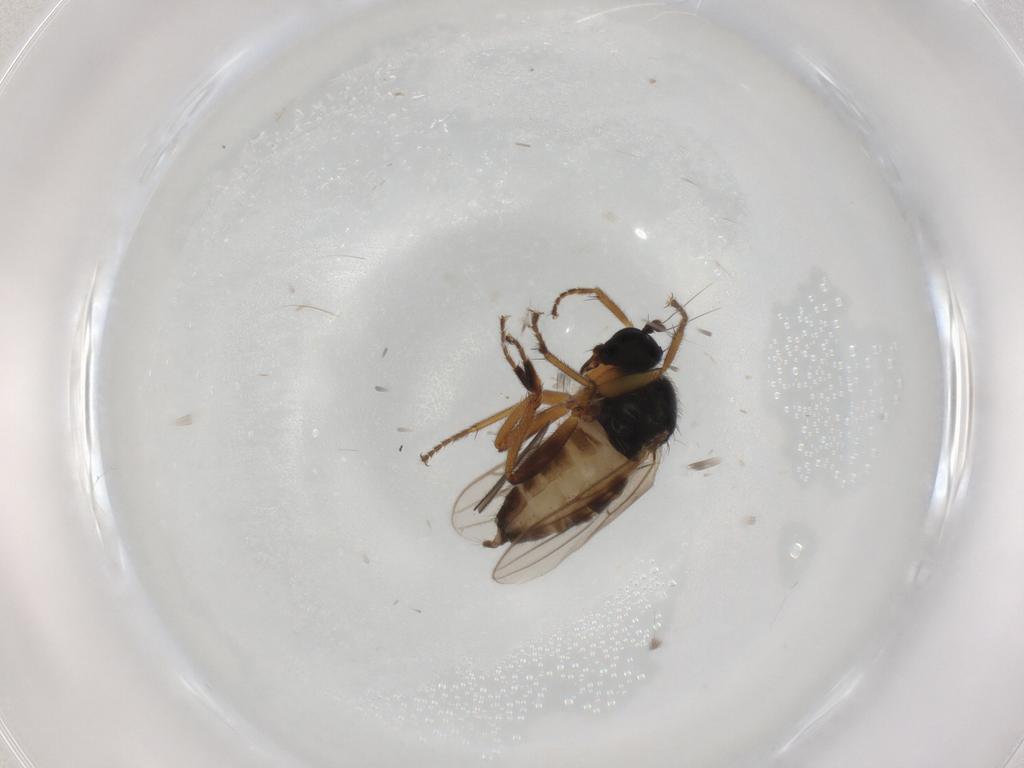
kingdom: Animalia
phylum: Arthropoda
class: Insecta
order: Diptera
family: Hybotidae
